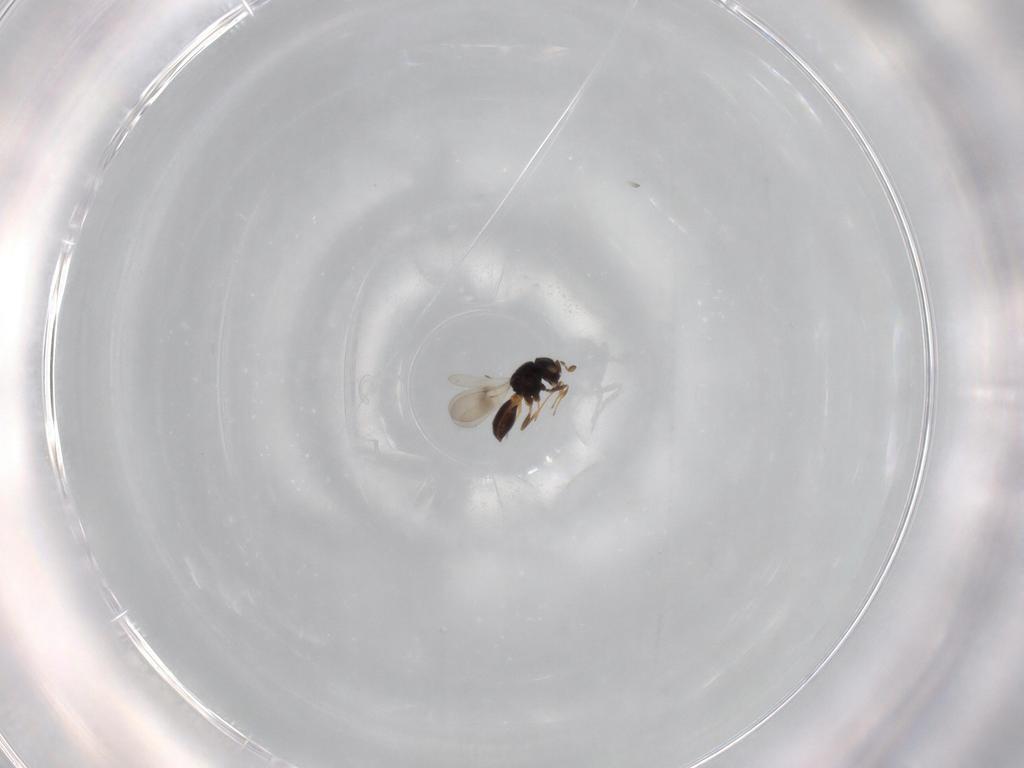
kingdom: Animalia
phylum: Arthropoda
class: Insecta
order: Hymenoptera
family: Scelionidae
